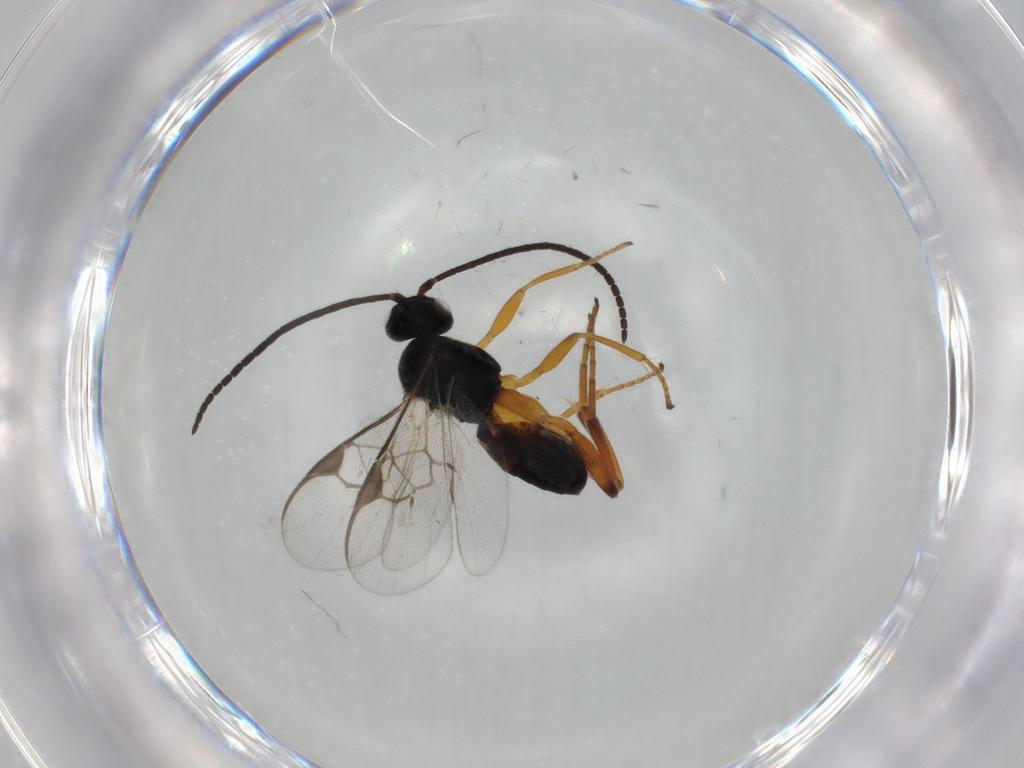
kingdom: Animalia
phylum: Arthropoda
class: Insecta
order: Hymenoptera
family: Braconidae
